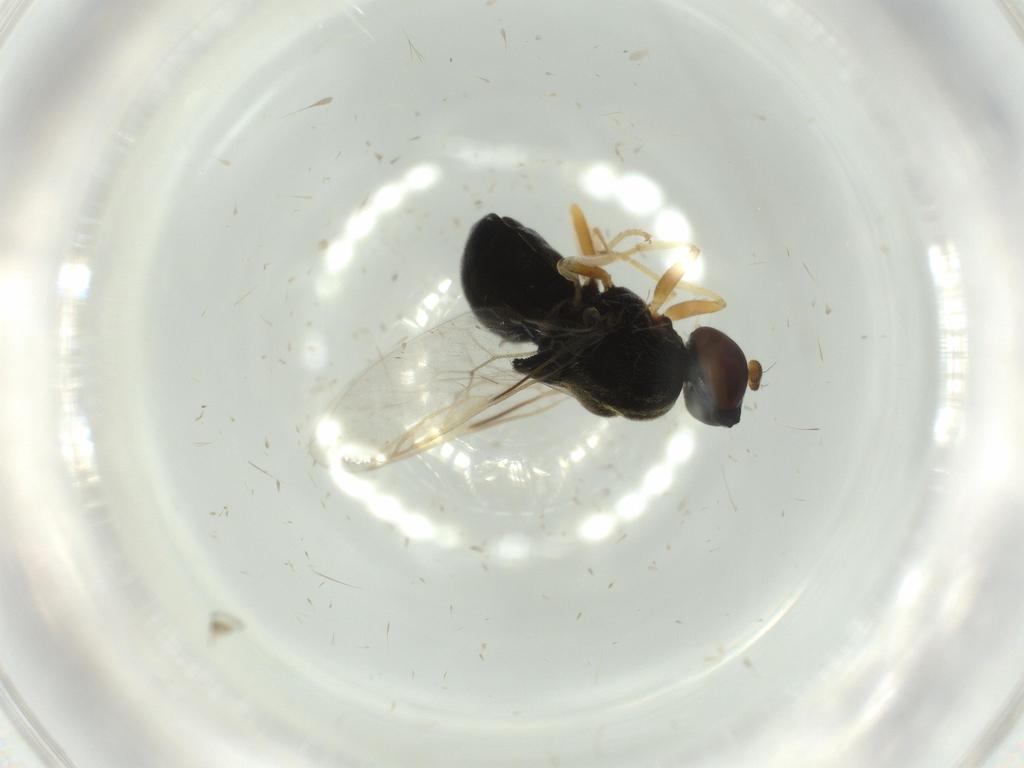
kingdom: Animalia
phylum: Arthropoda
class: Insecta
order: Diptera
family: Stratiomyidae
